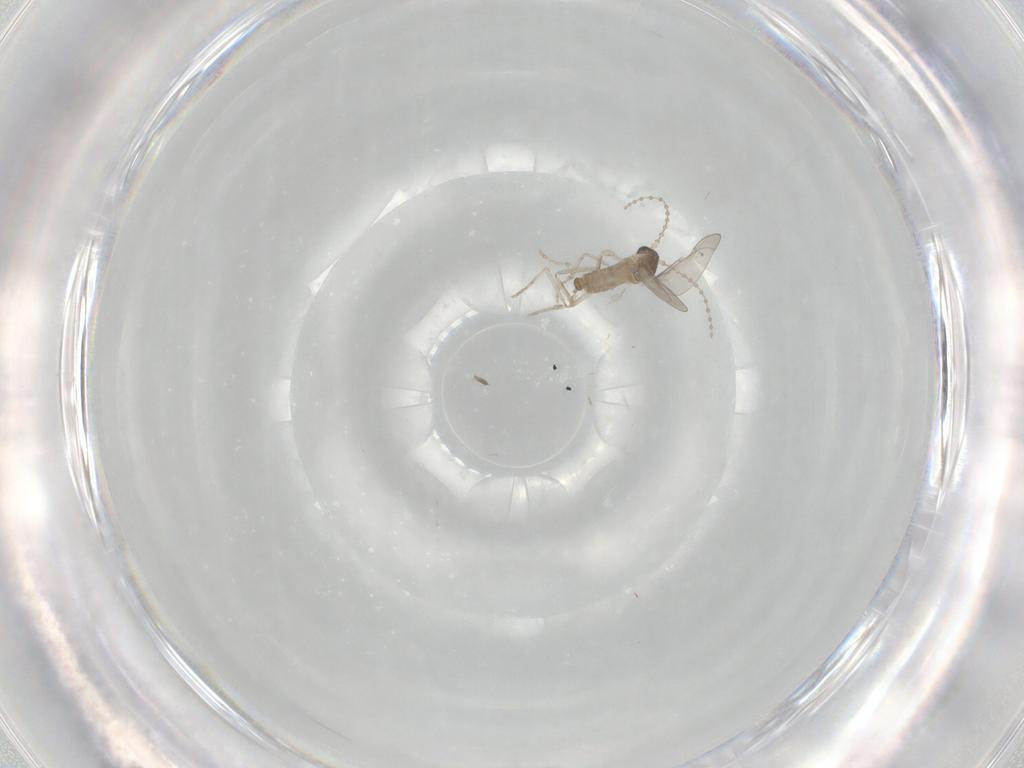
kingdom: Animalia
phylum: Arthropoda
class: Insecta
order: Diptera
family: Cecidomyiidae
